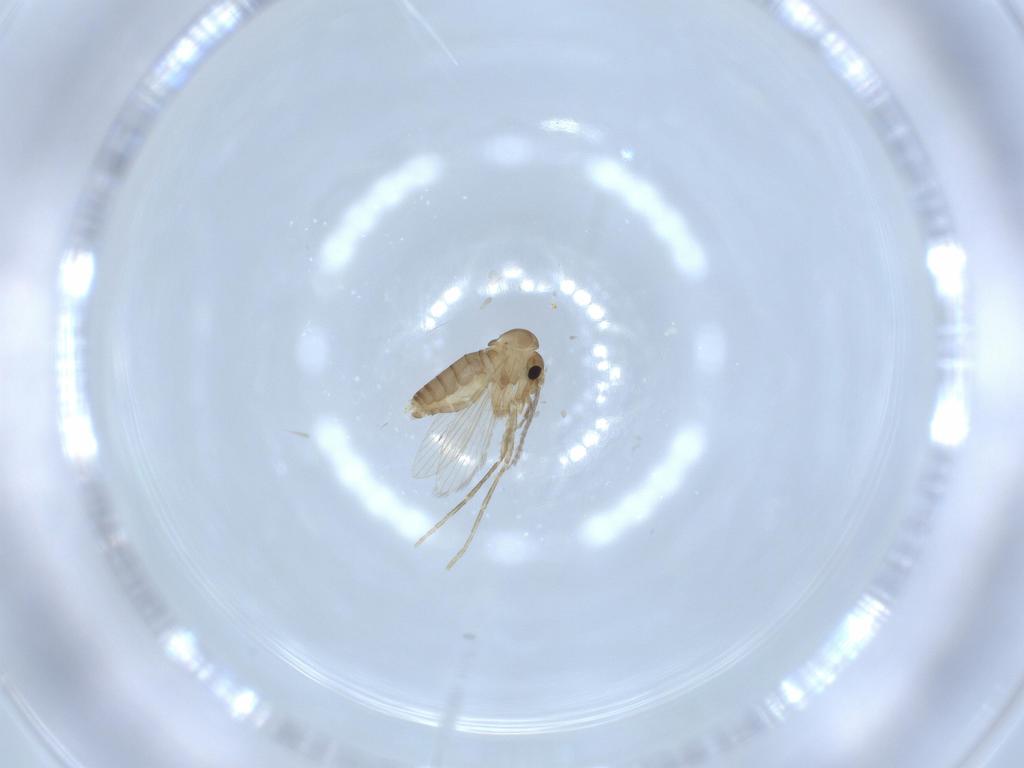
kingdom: Animalia
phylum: Arthropoda
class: Insecta
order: Diptera
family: Psychodidae
